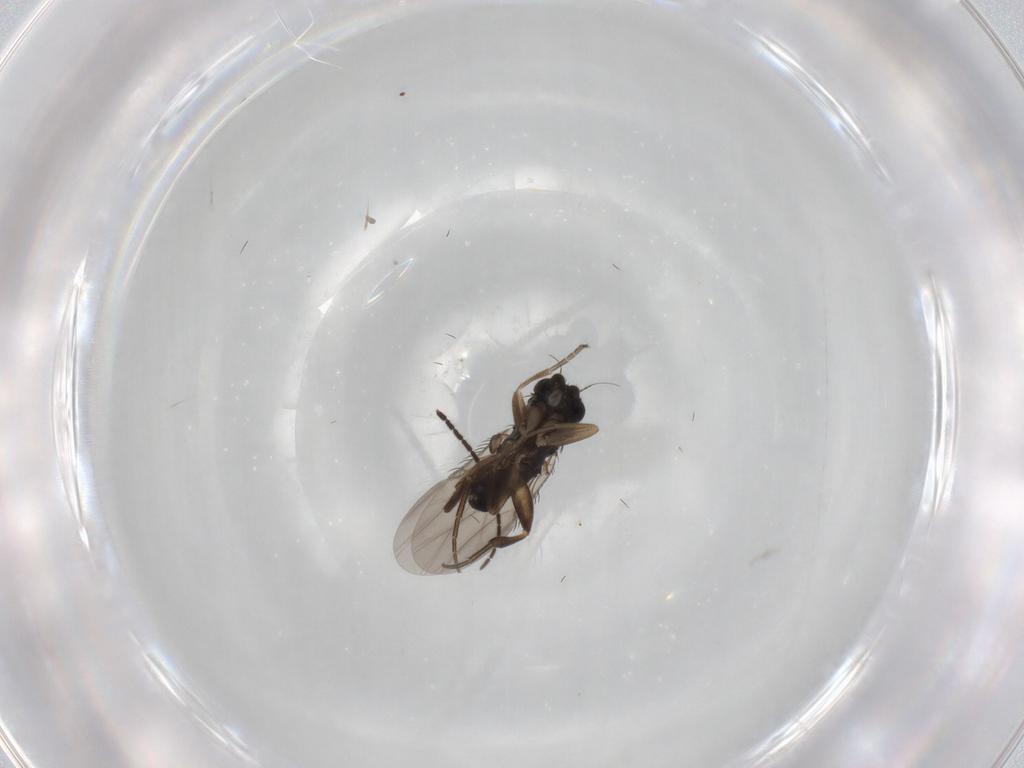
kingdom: Animalia
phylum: Arthropoda
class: Insecta
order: Diptera
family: Phoridae
